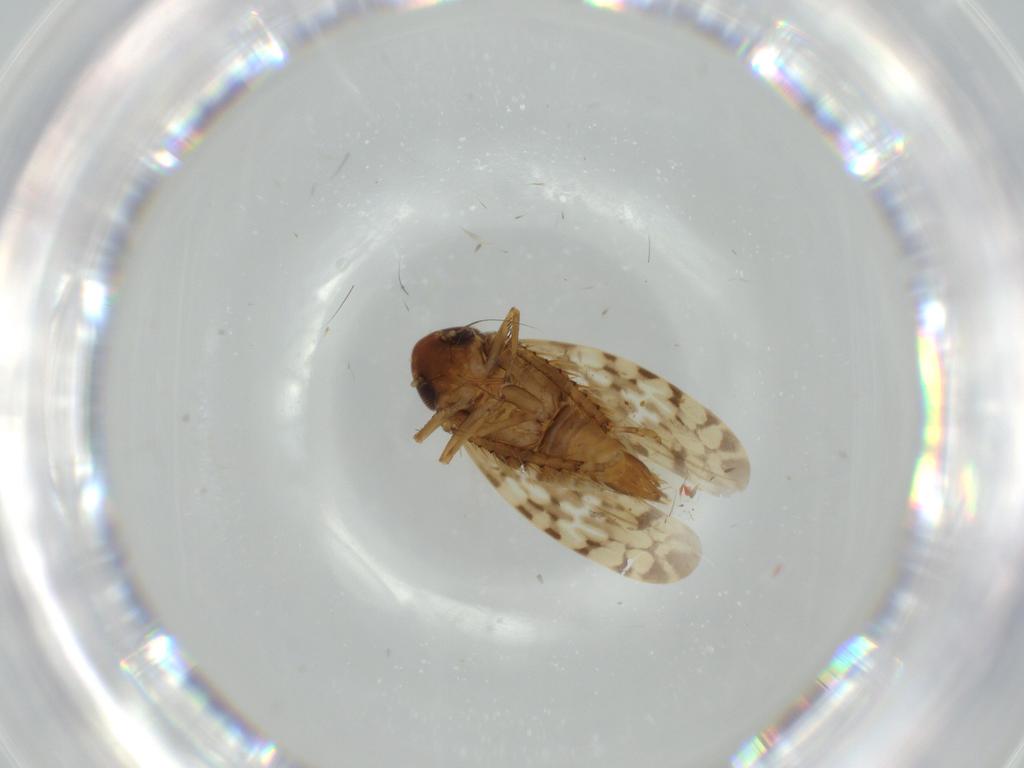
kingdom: Animalia
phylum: Arthropoda
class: Insecta
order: Hemiptera
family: Cicadellidae
